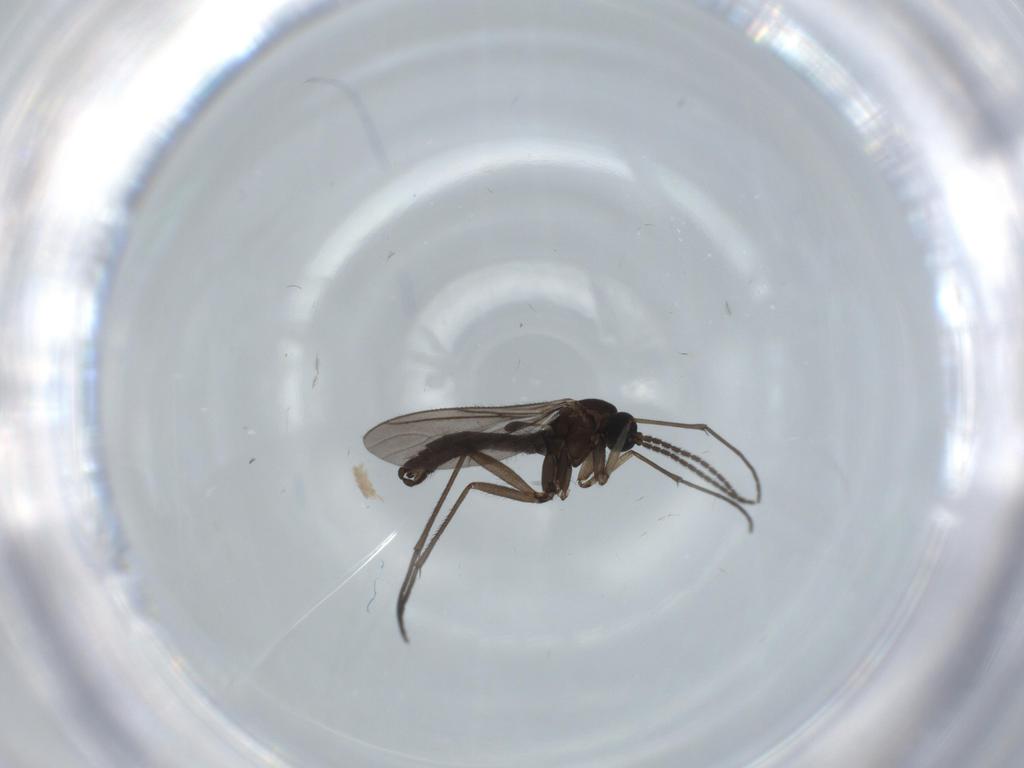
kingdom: Animalia
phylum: Arthropoda
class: Insecta
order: Diptera
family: Sciaridae
